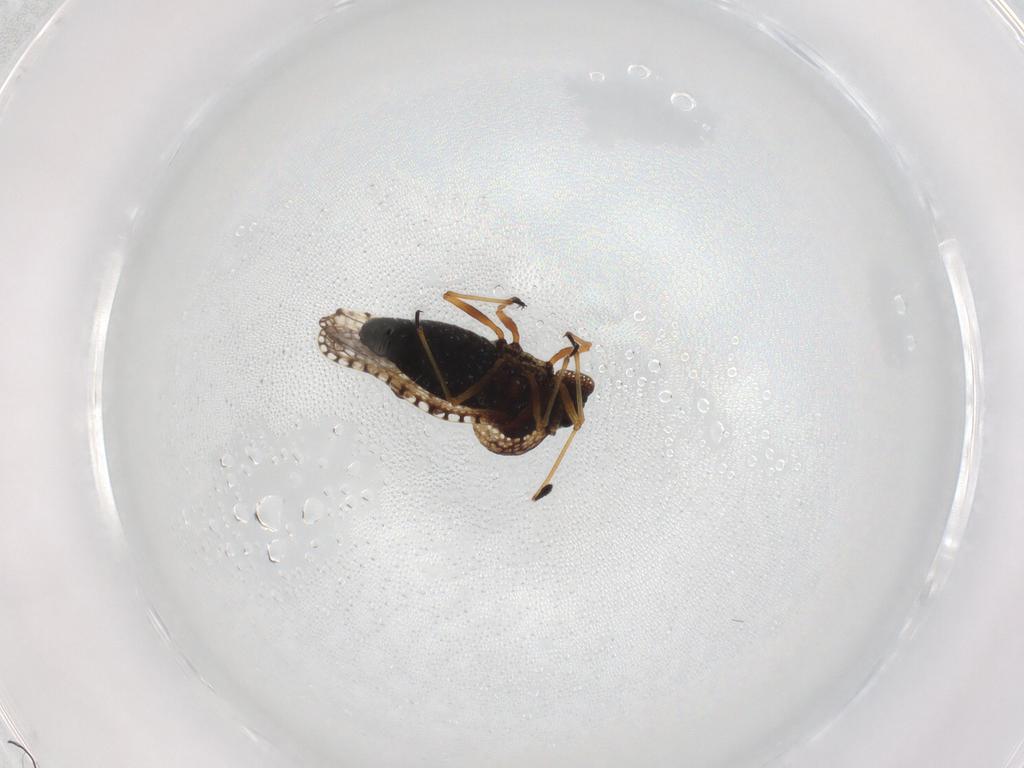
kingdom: Animalia
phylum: Arthropoda
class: Insecta
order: Hemiptera
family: Tingidae
